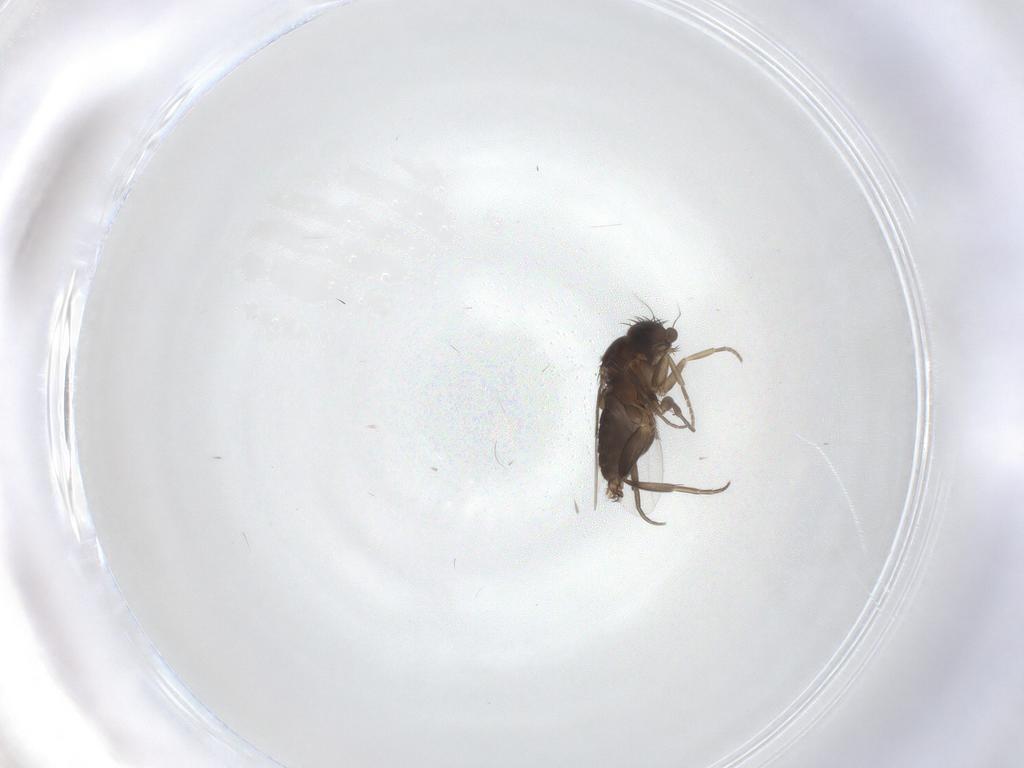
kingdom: Animalia
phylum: Arthropoda
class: Insecta
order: Diptera
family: Phoridae
